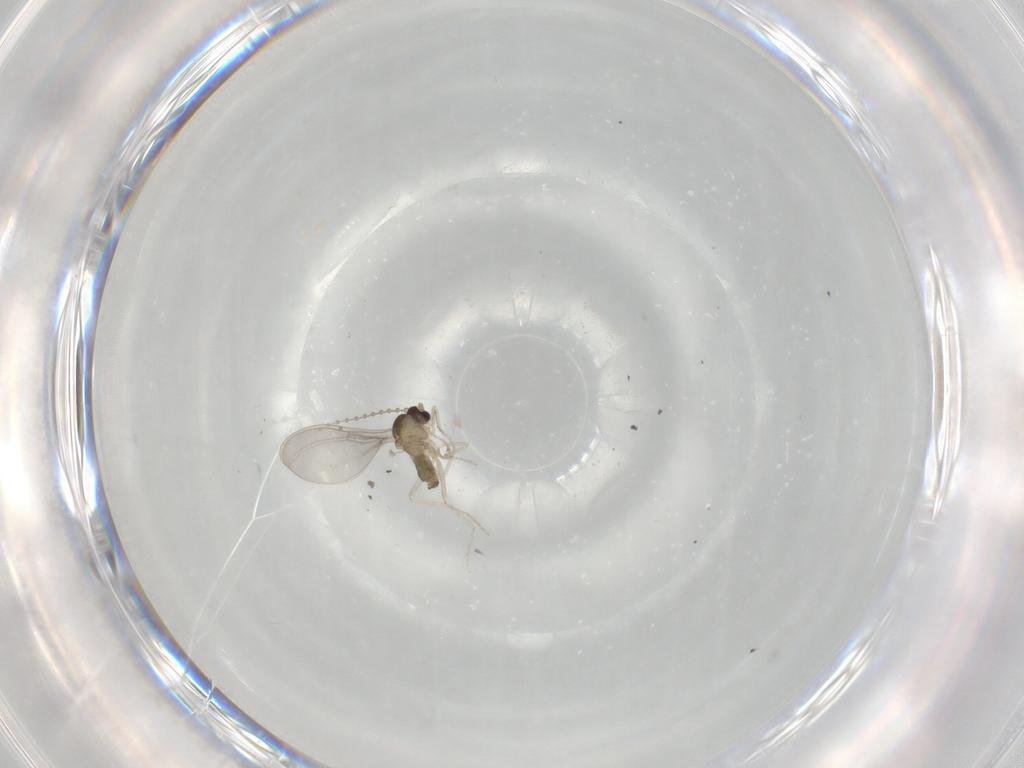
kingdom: Animalia
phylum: Arthropoda
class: Insecta
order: Diptera
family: Cecidomyiidae
